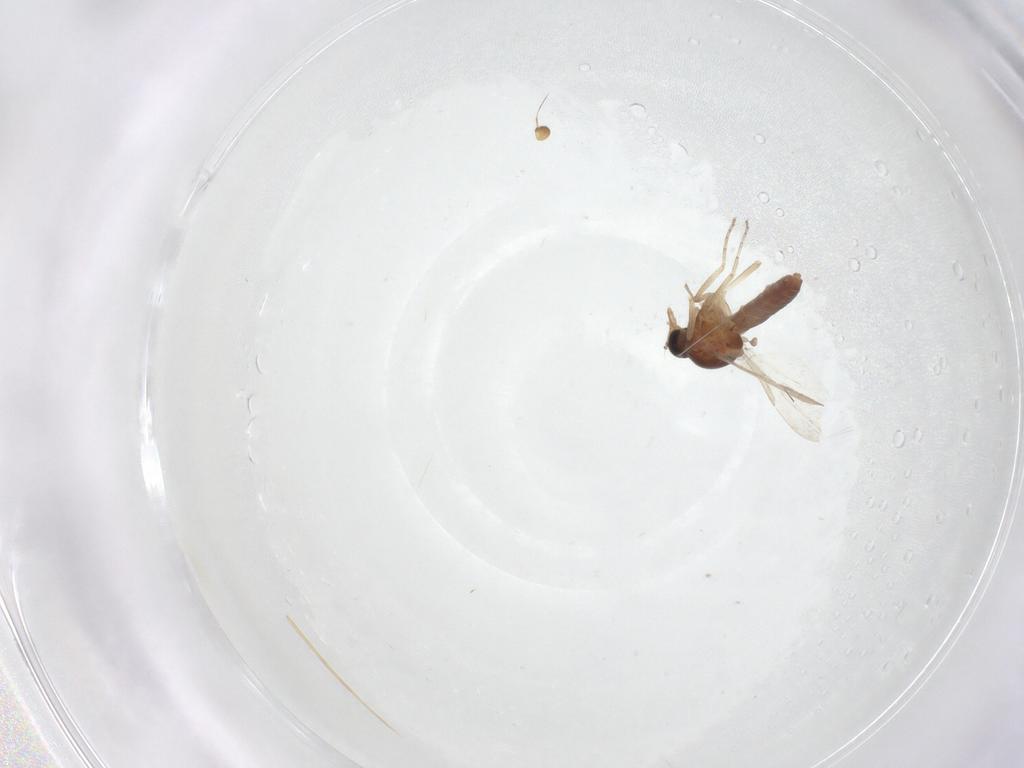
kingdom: Animalia
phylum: Arthropoda
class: Insecta
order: Diptera
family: Ceratopogonidae
